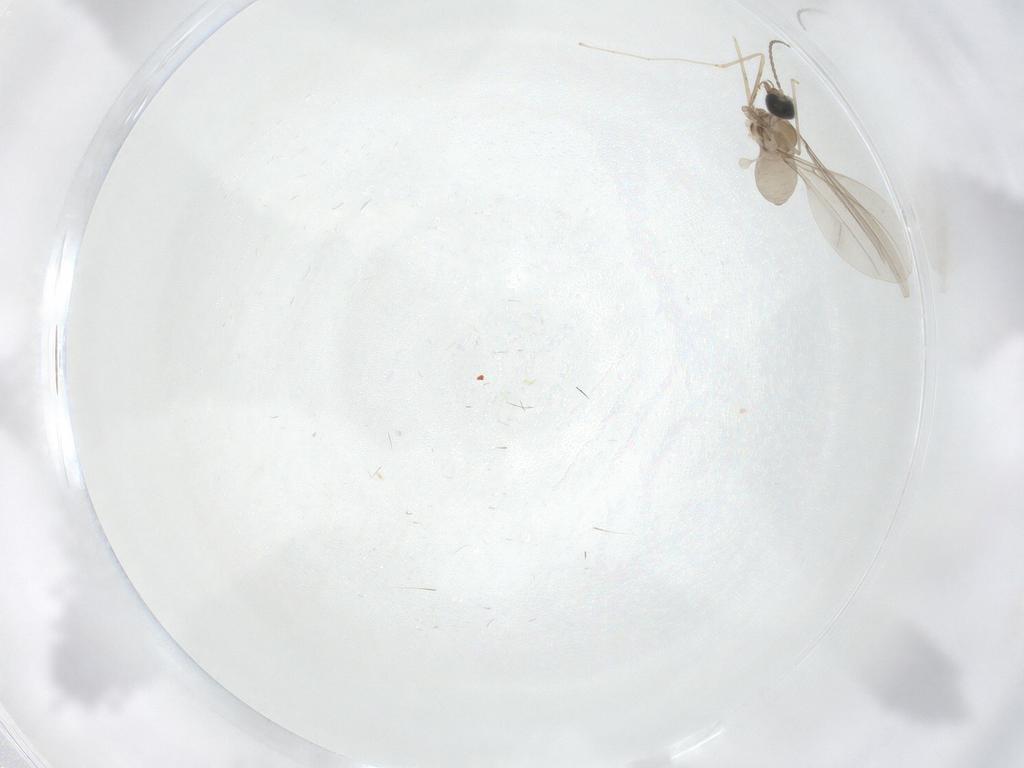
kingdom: Animalia
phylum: Arthropoda
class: Insecta
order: Diptera
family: Cecidomyiidae
